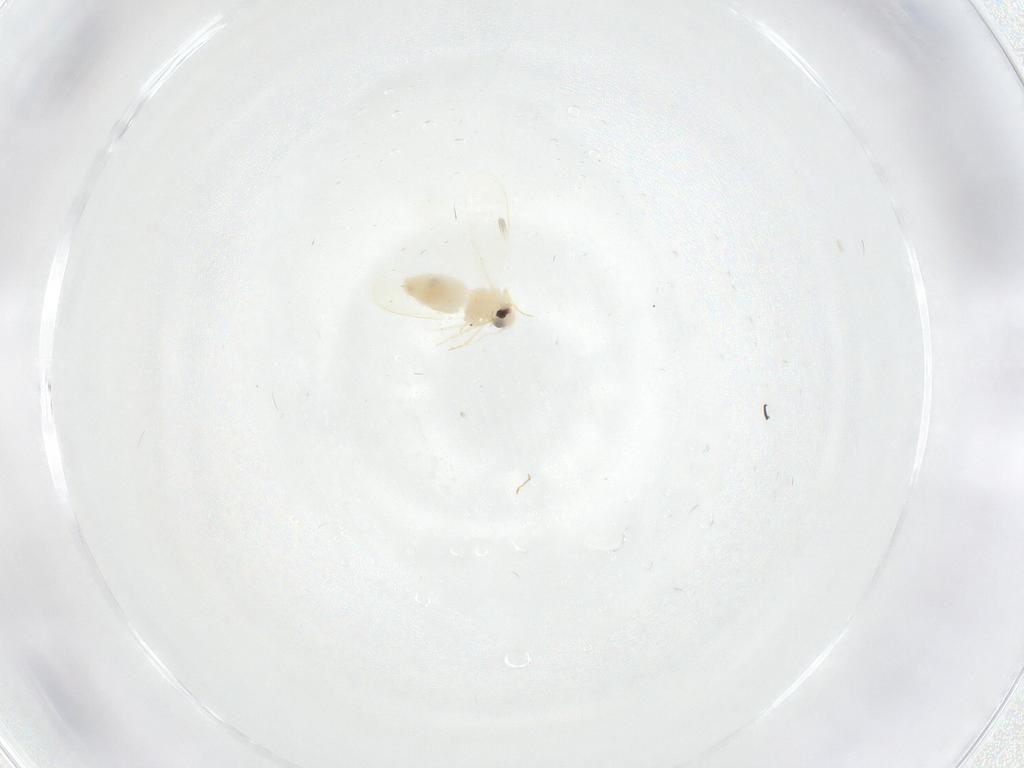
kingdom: Animalia
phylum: Arthropoda
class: Insecta
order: Hemiptera
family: Aleyrodidae
